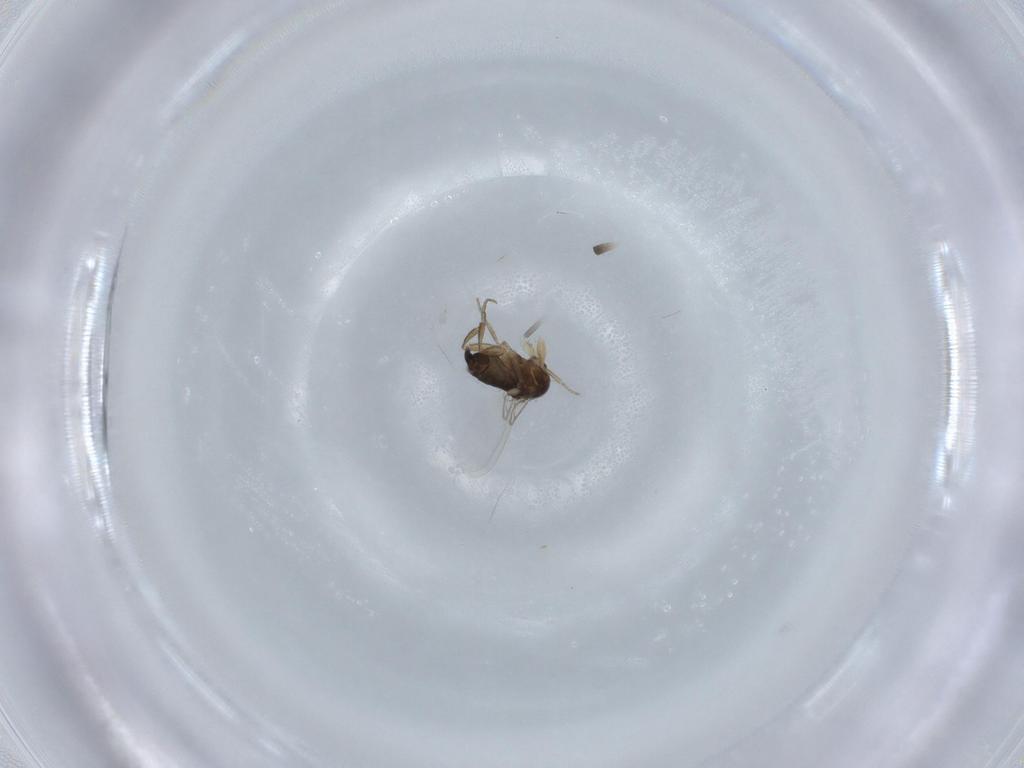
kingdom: Animalia
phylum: Arthropoda
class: Insecta
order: Diptera
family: Phoridae
